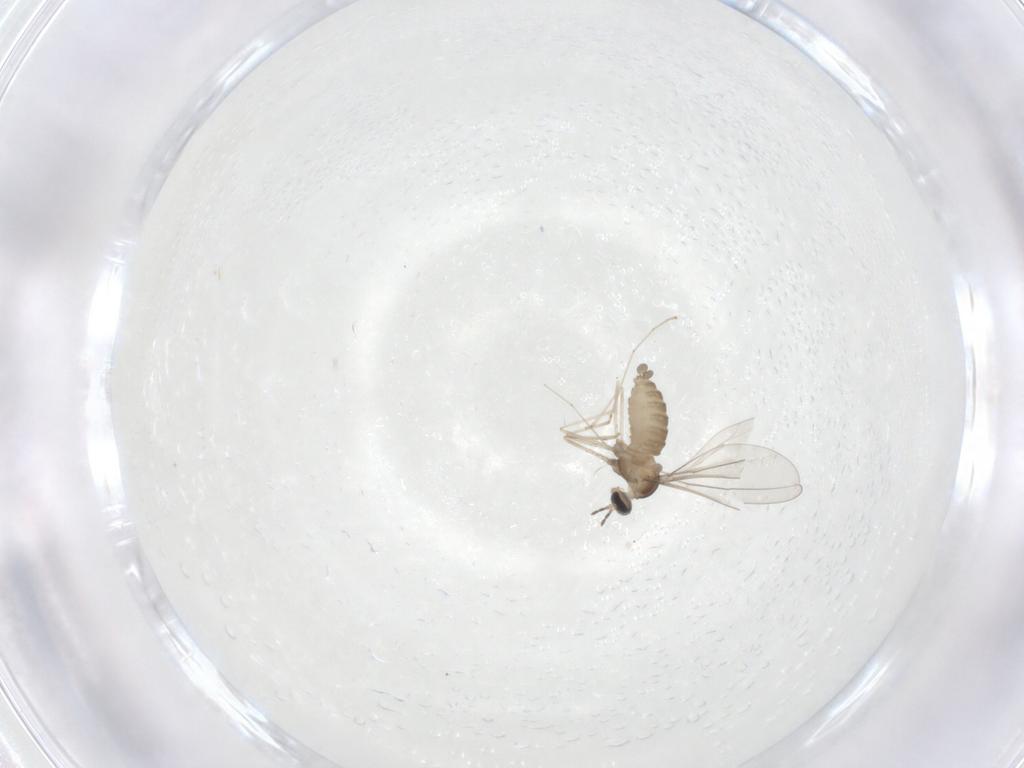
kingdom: Animalia
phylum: Arthropoda
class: Insecta
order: Diptera
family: Cecidomyiidae
